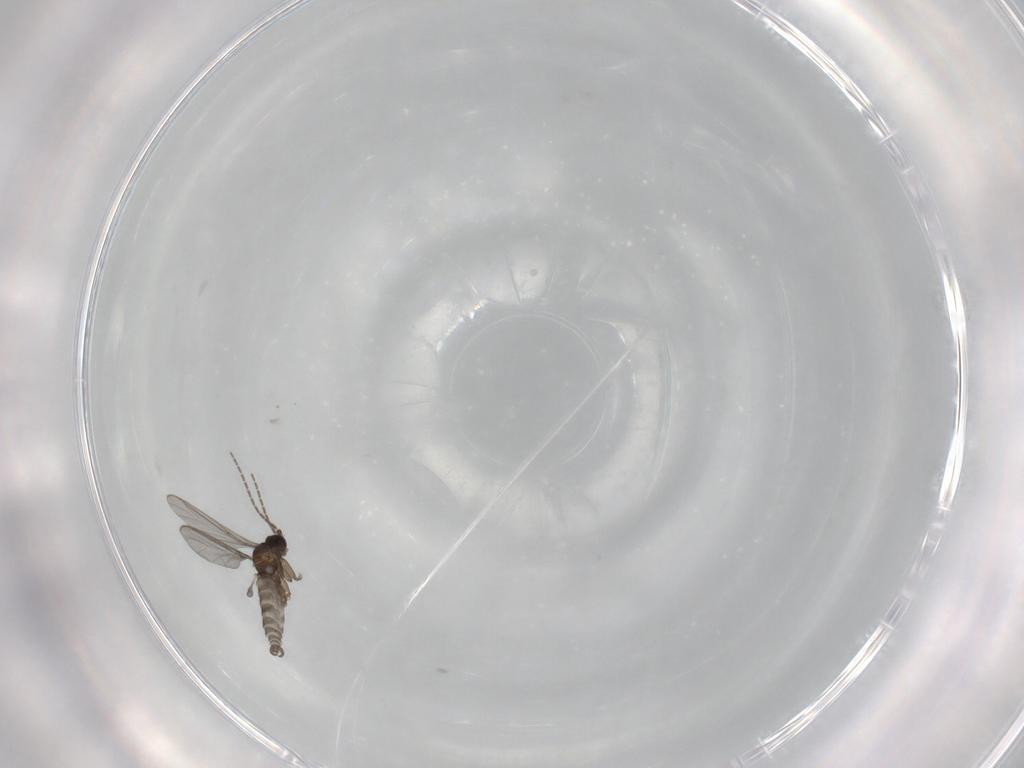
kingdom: Animalia
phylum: Arthropoda
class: Insecta
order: Diptera
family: Sciaridae
